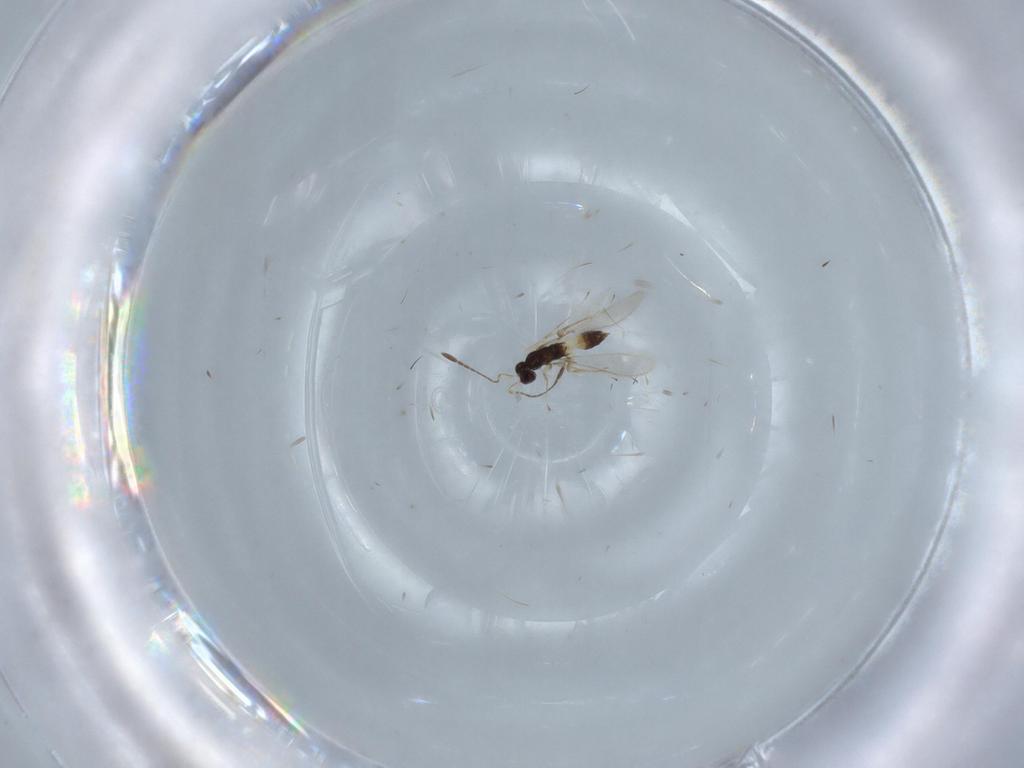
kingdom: Animalia
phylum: Arthropoda
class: Insecta
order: Hymenoptera
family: Mymaridae
